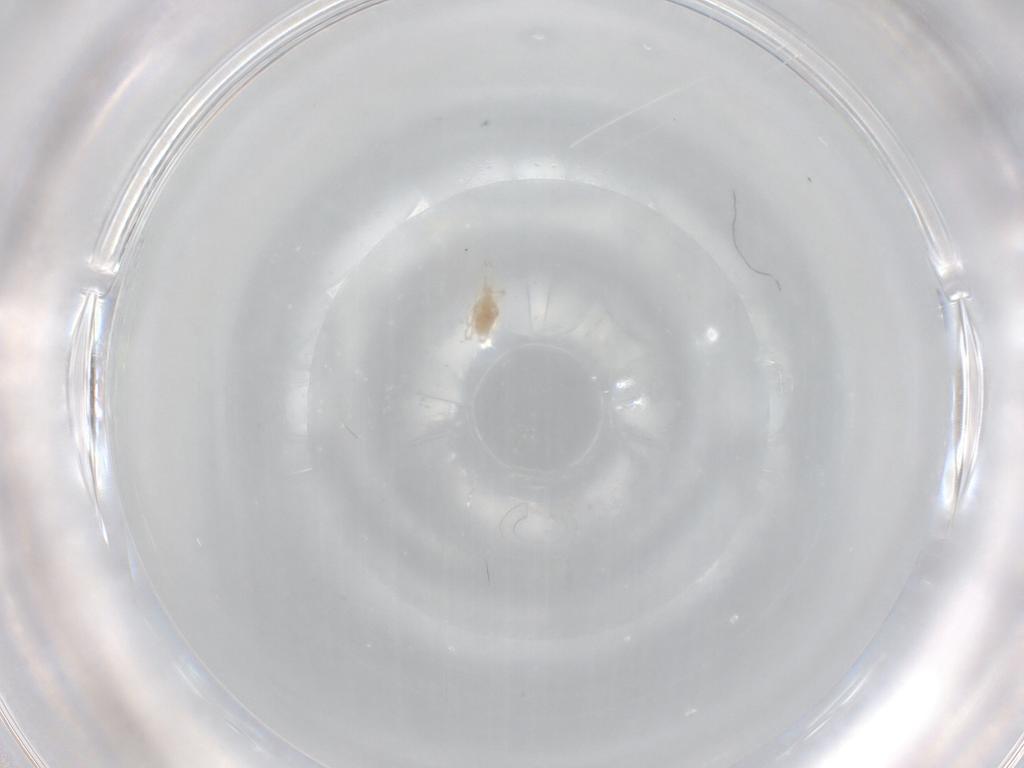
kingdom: Animalia
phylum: Arthropoda
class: Arachnida
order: Trombidiformes
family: Cunaxidae
